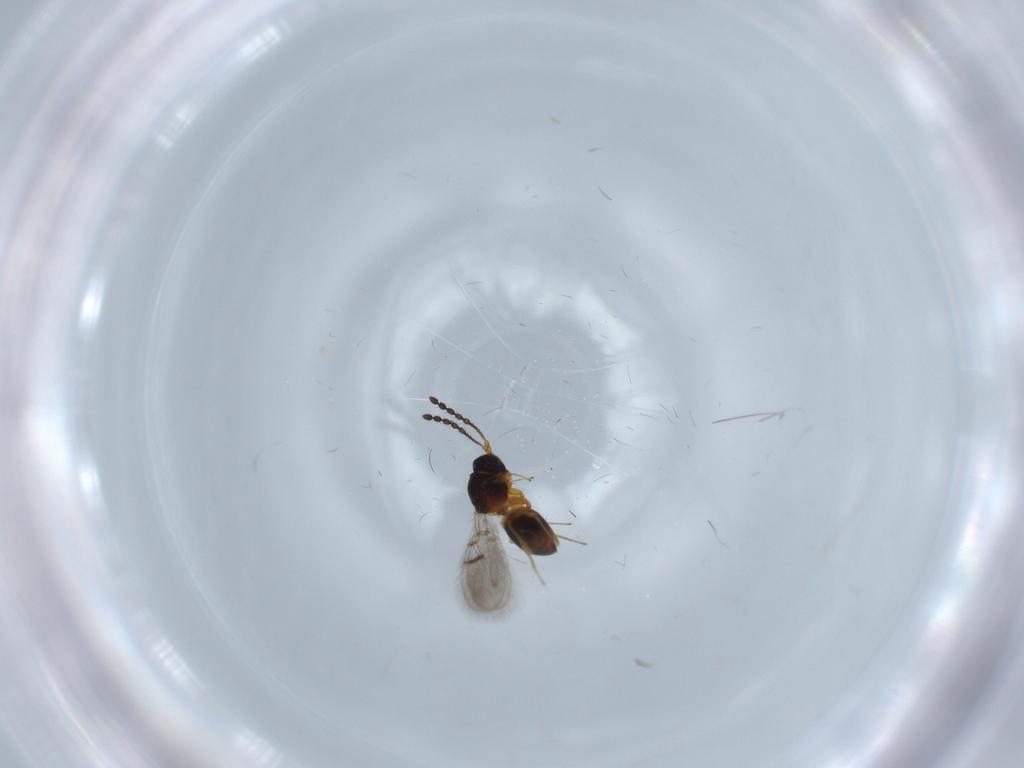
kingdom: Animalia
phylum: Arthropoda
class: Insecta
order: Hymenoptera
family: Figitidae
